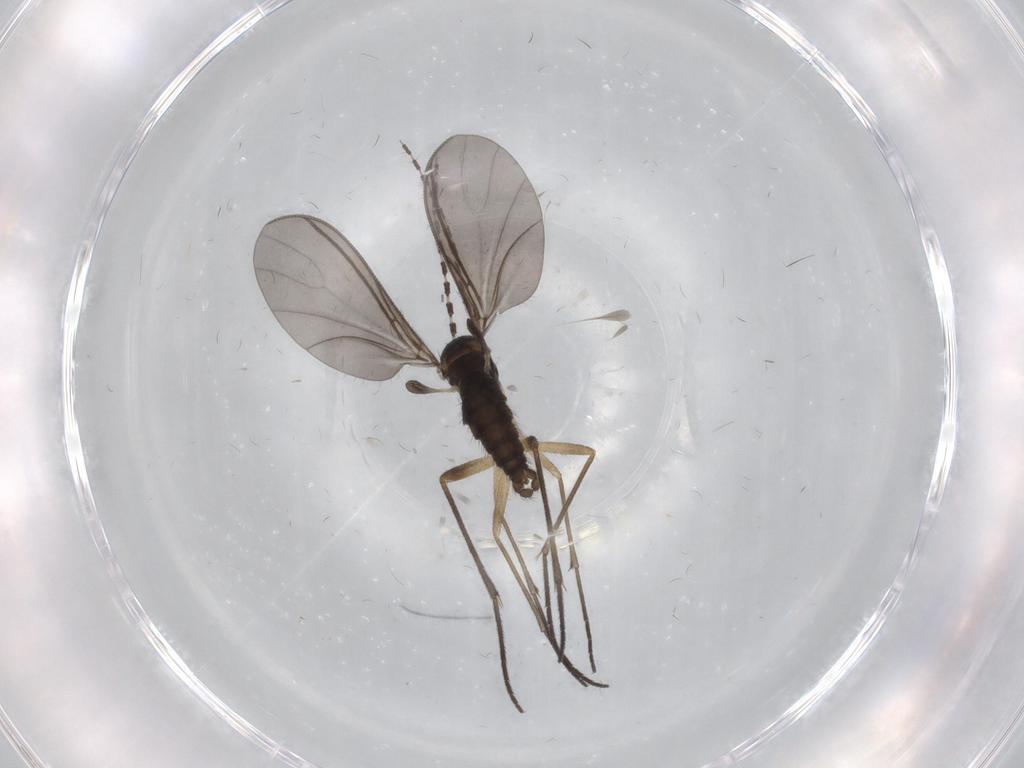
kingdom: Animalia
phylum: Arthropoda
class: Insecta
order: Diptera
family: Sciaridae
